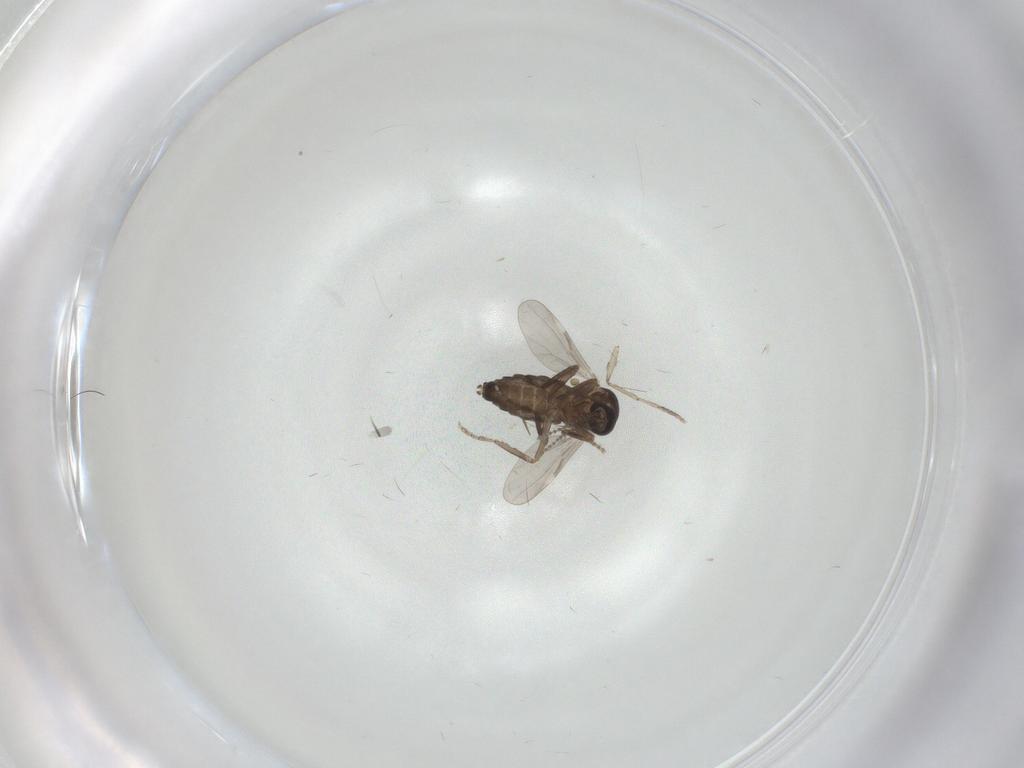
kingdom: Animalia
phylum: Arthropoda
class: Insecta
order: Diptera
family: Ceratopogonidae
